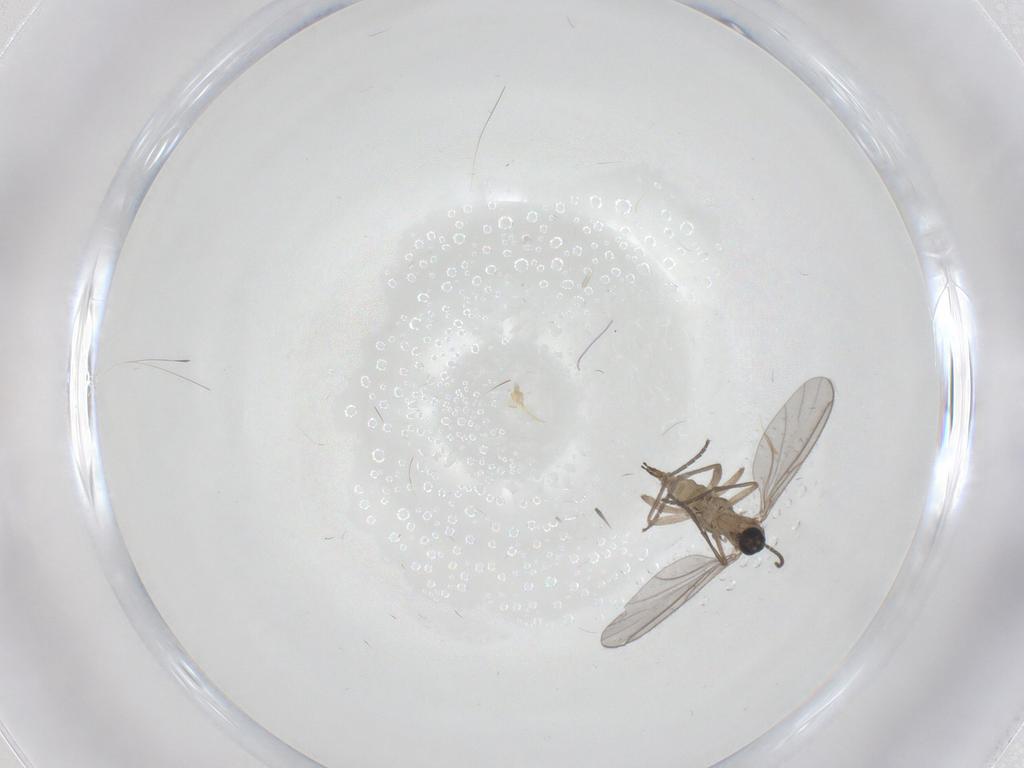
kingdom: Animalia
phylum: Arthropoda
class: Insecta
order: Diptera
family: Sciaridae
